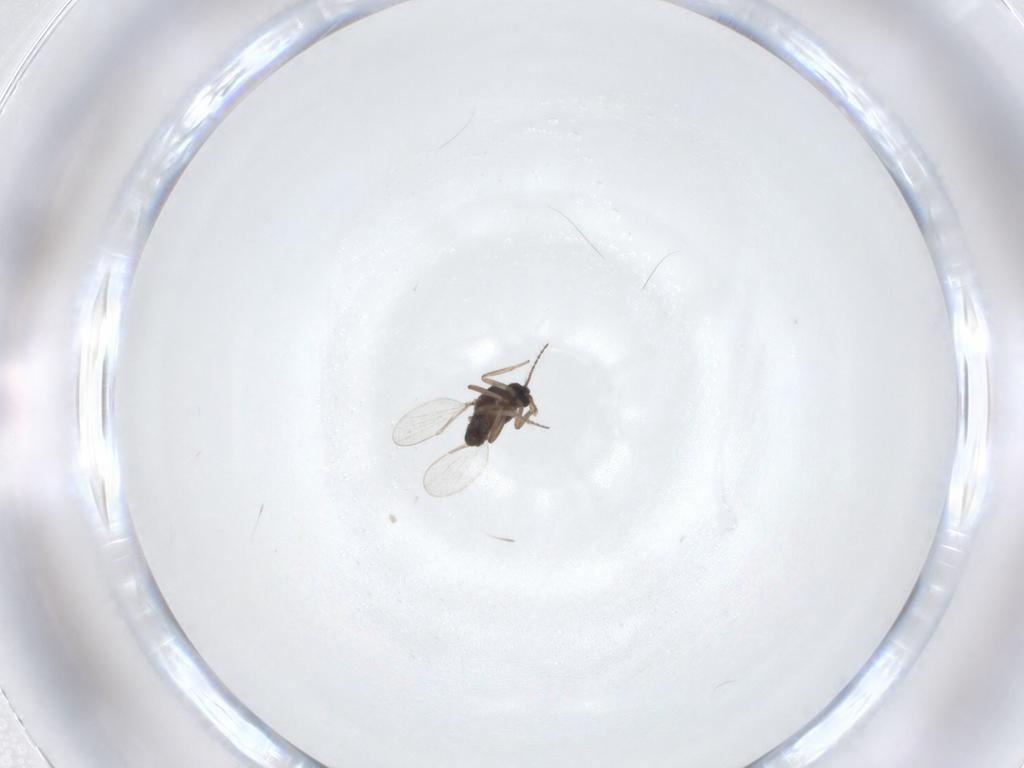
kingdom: Animalia
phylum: Arthropoda
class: Insecta
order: Diptera
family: Ceratopogonidae
